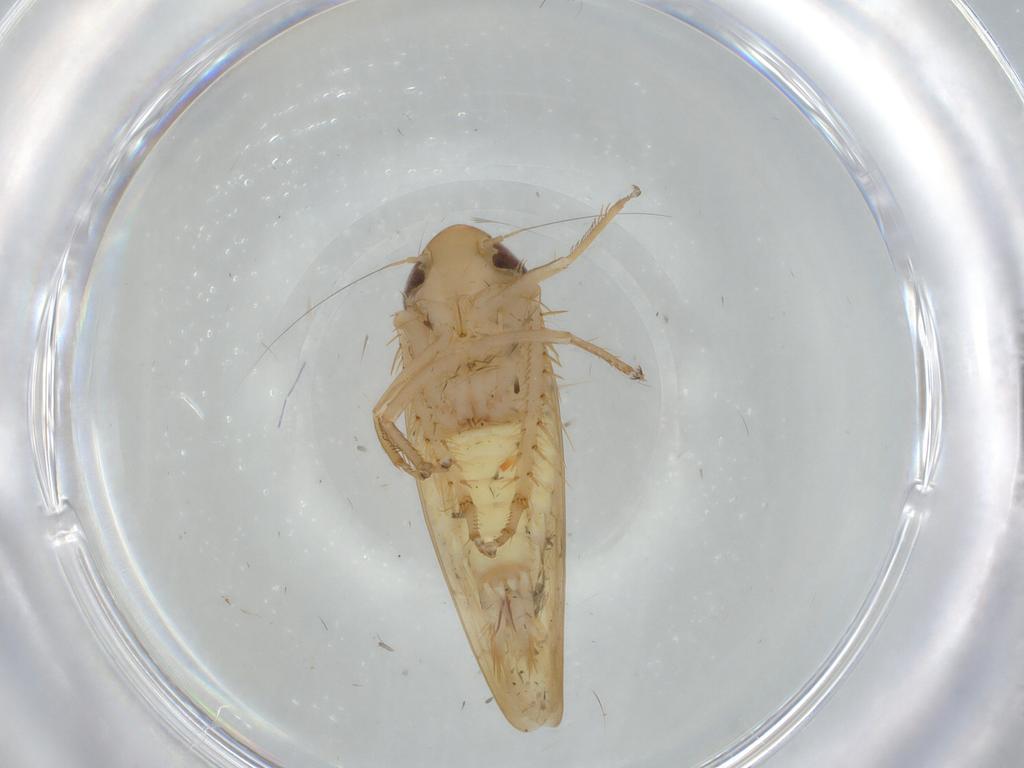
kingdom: Animalia
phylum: Arthropoda
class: Insecta
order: Hemiptera
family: Cicadellidae
